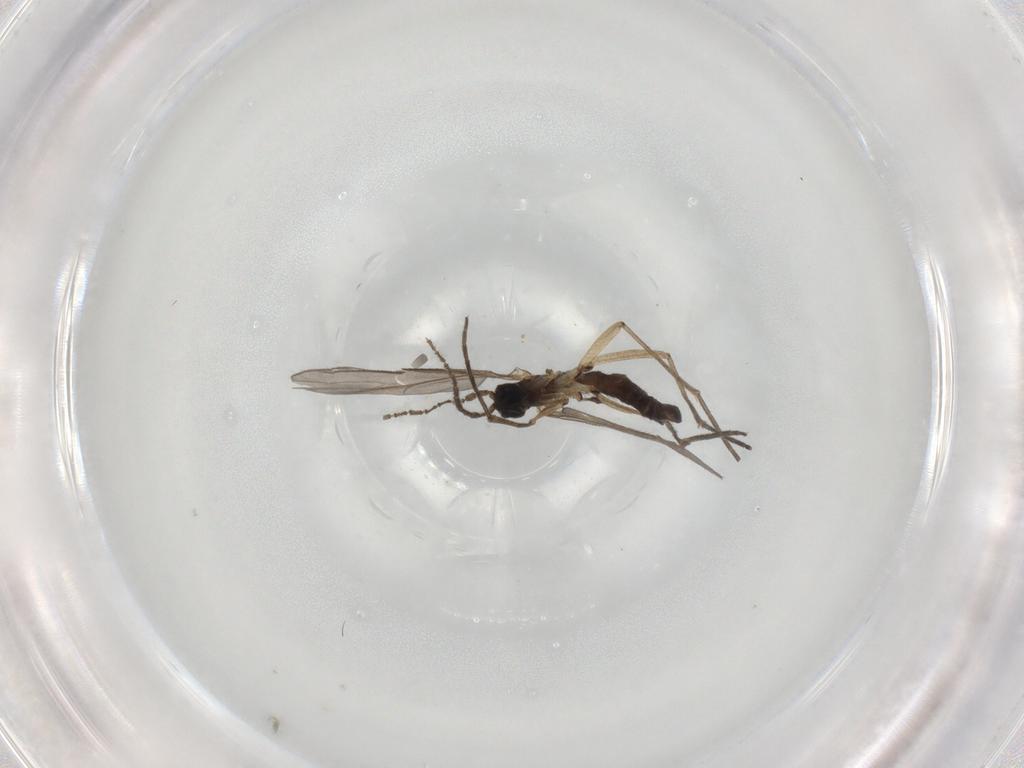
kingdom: Animalia
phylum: Arthropoda
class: Insecta
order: Diptera
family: Sciaridae
